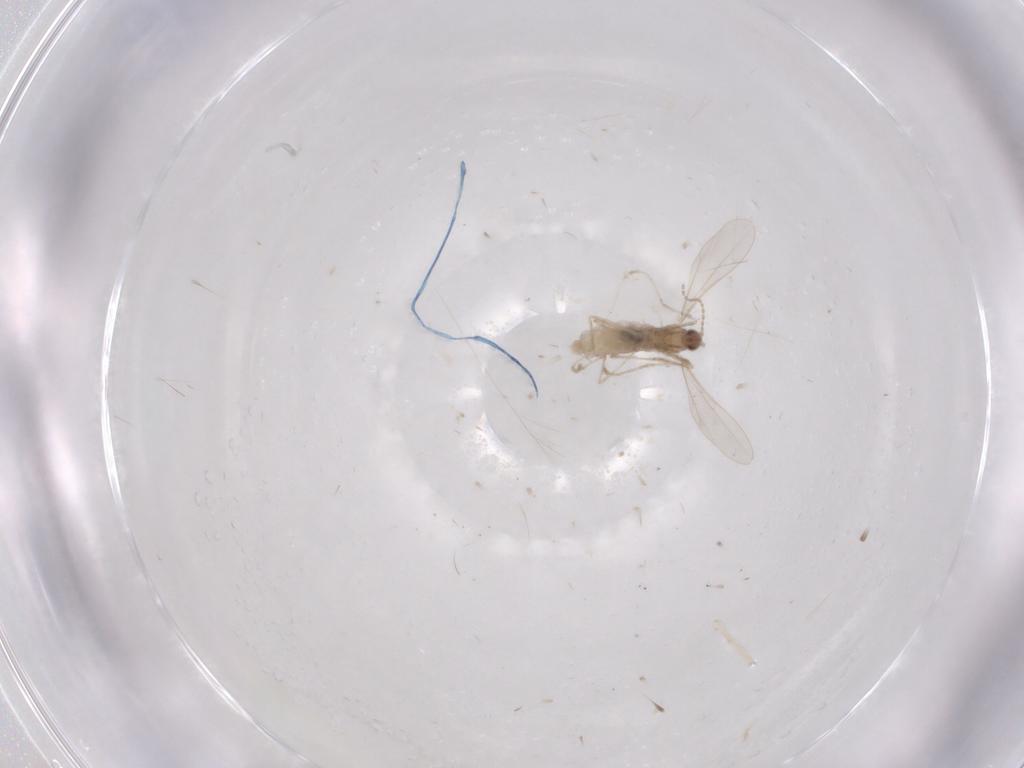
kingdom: Animalia
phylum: Arthropoda
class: Insecta
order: Diptera
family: Cecidomyiidae
